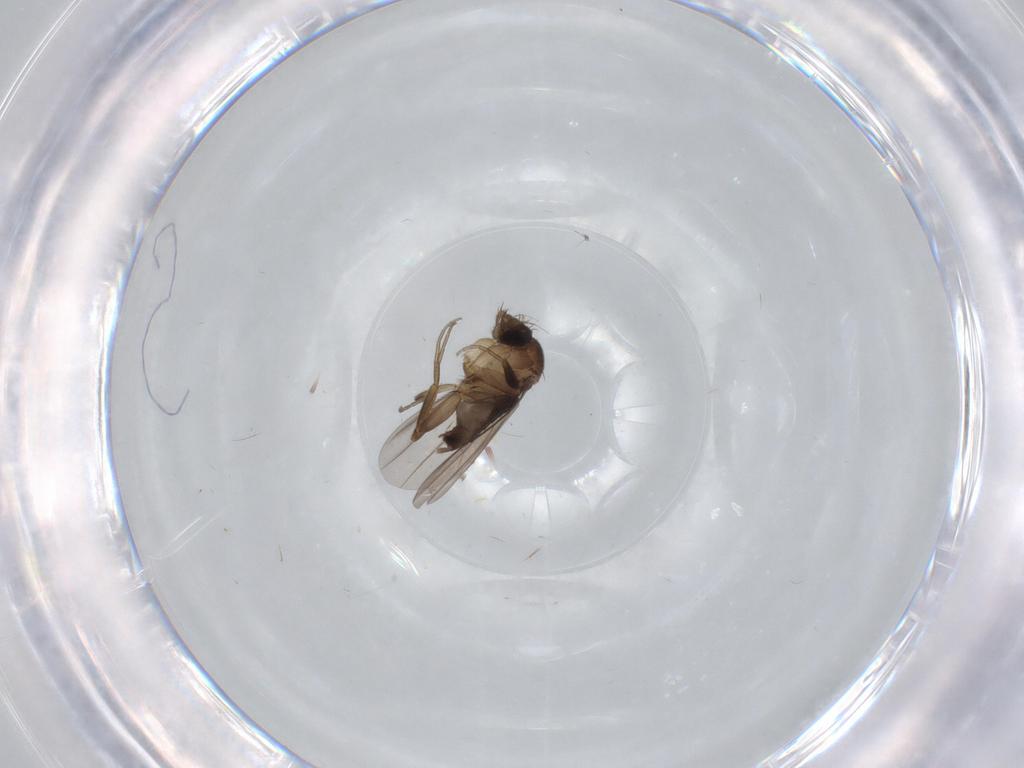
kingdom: Animalia
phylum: Arthropoda
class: Insecta
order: Diptera
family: Phoridae
